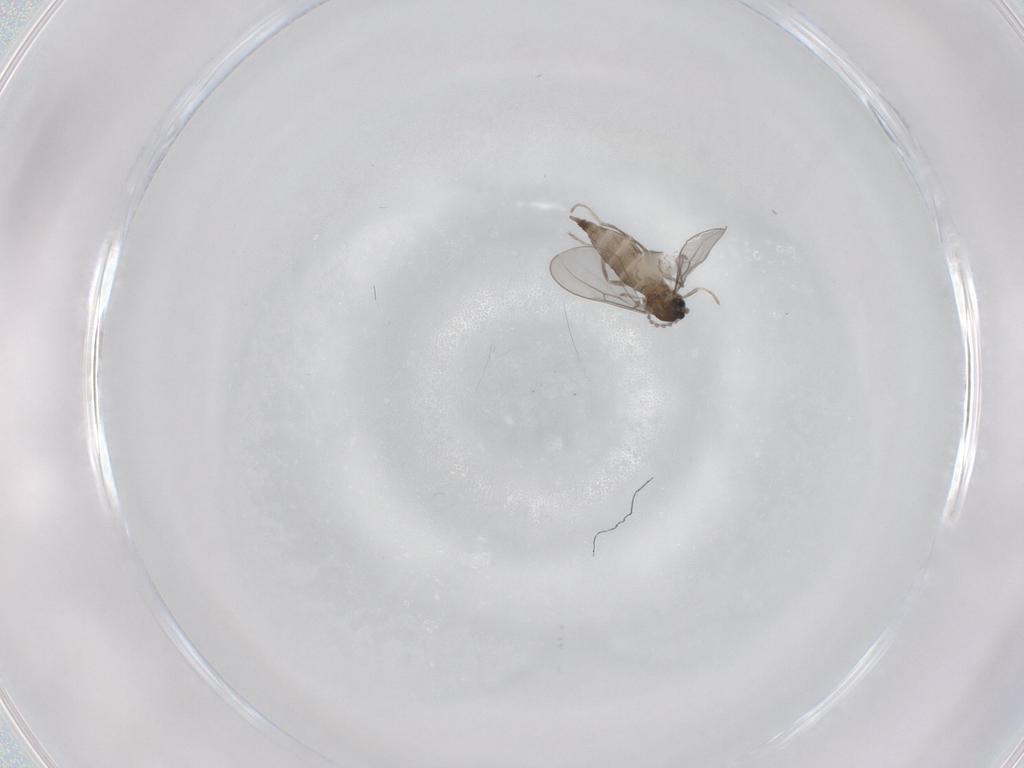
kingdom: Animalia
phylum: Arthropoda
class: Insecta
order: Diptera
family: Cecidomyiidae
